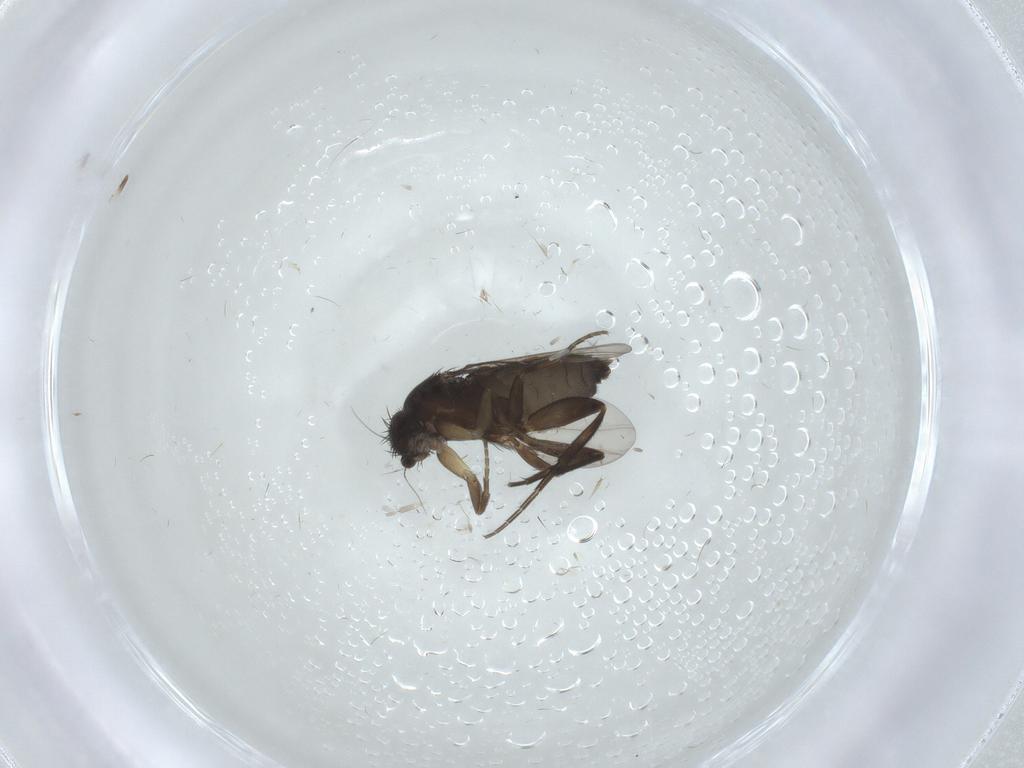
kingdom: Animalia
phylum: Arthropoda
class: Insecta
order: Diptera
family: Phoridae
